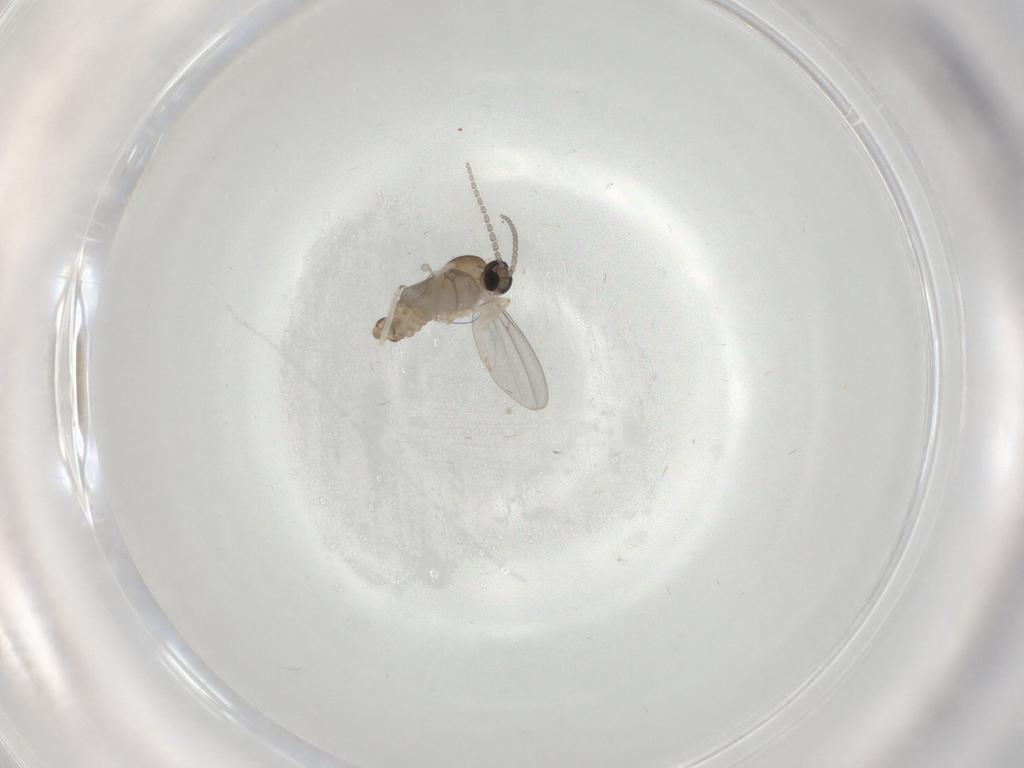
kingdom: Animalia
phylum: Arthropoda
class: Insecta
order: Diptera
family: Cecidomyiidae
